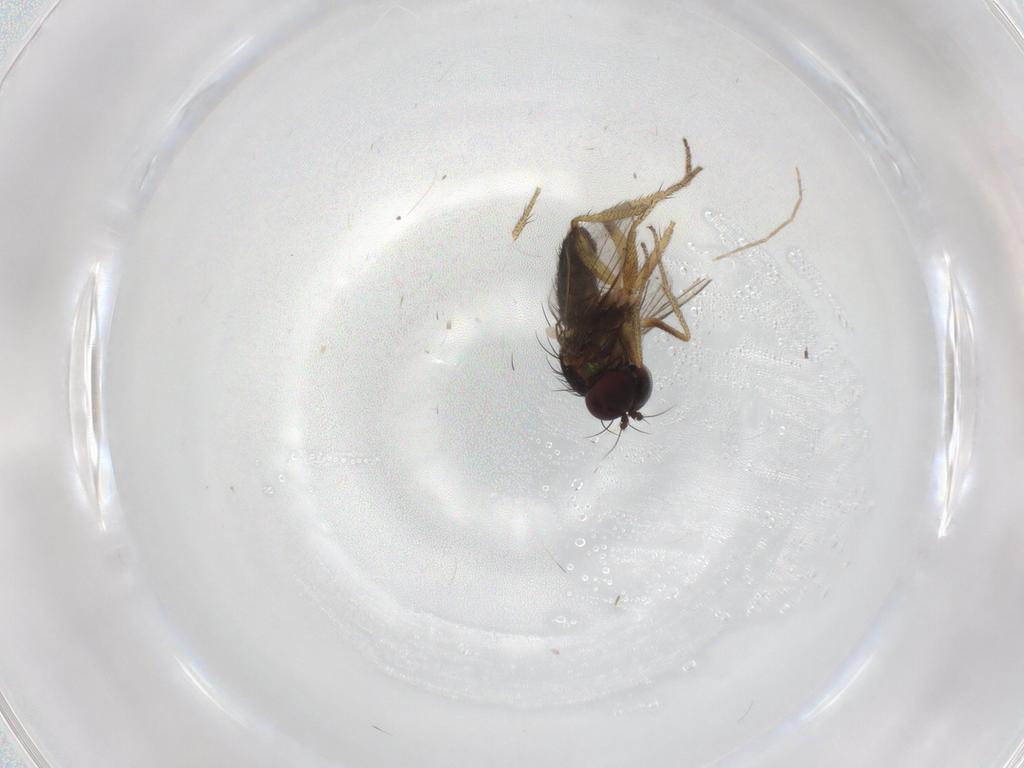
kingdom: Animalia
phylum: Arthropoda
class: Insecta
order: Diptera
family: Chironomidae
